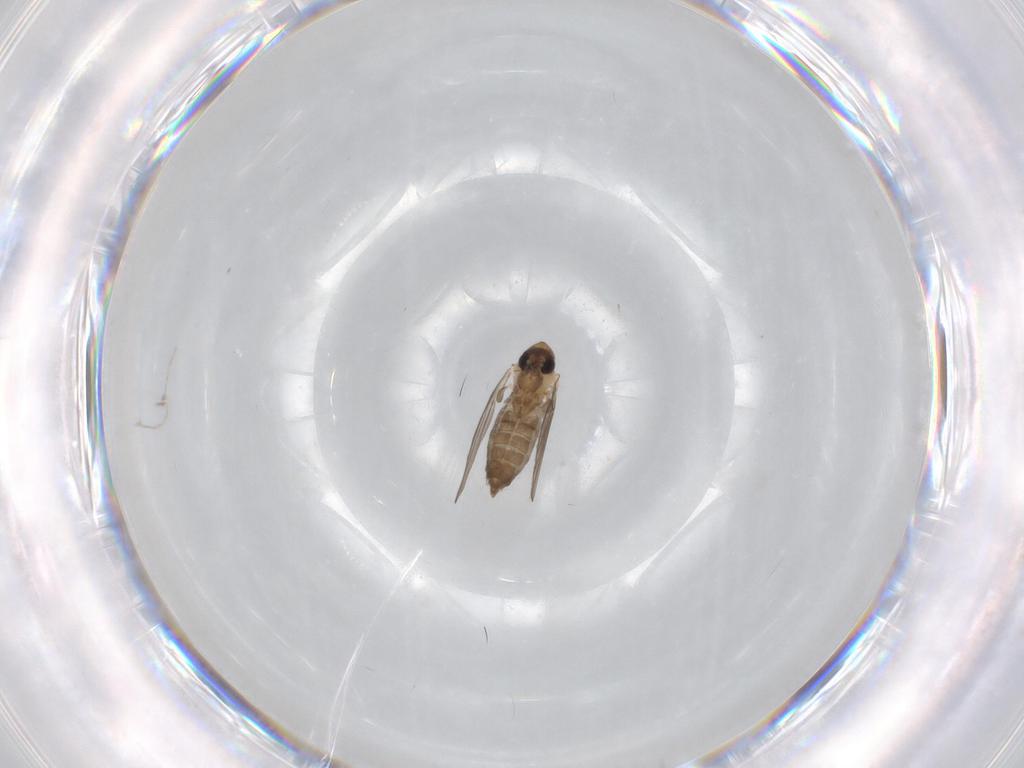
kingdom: Animalia
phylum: Arthropoda
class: Insecta
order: Diptera
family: Psychodidae
